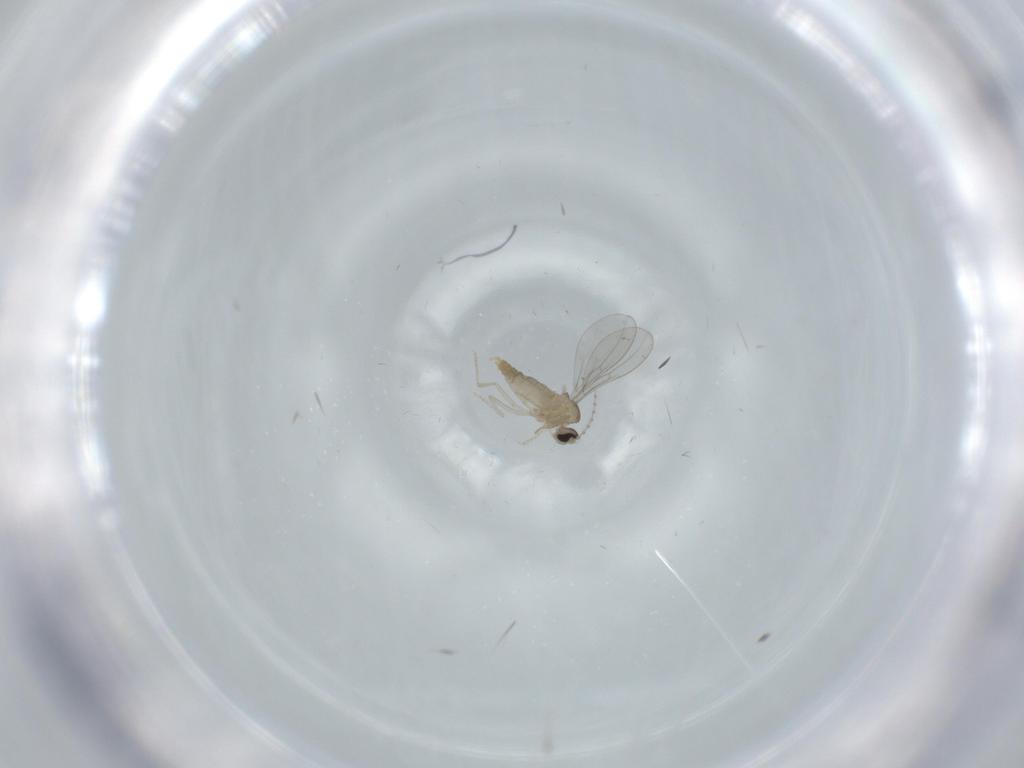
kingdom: Animalia
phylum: Arthropoda
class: Insecta
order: Diptera
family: Cecidomyiidae
